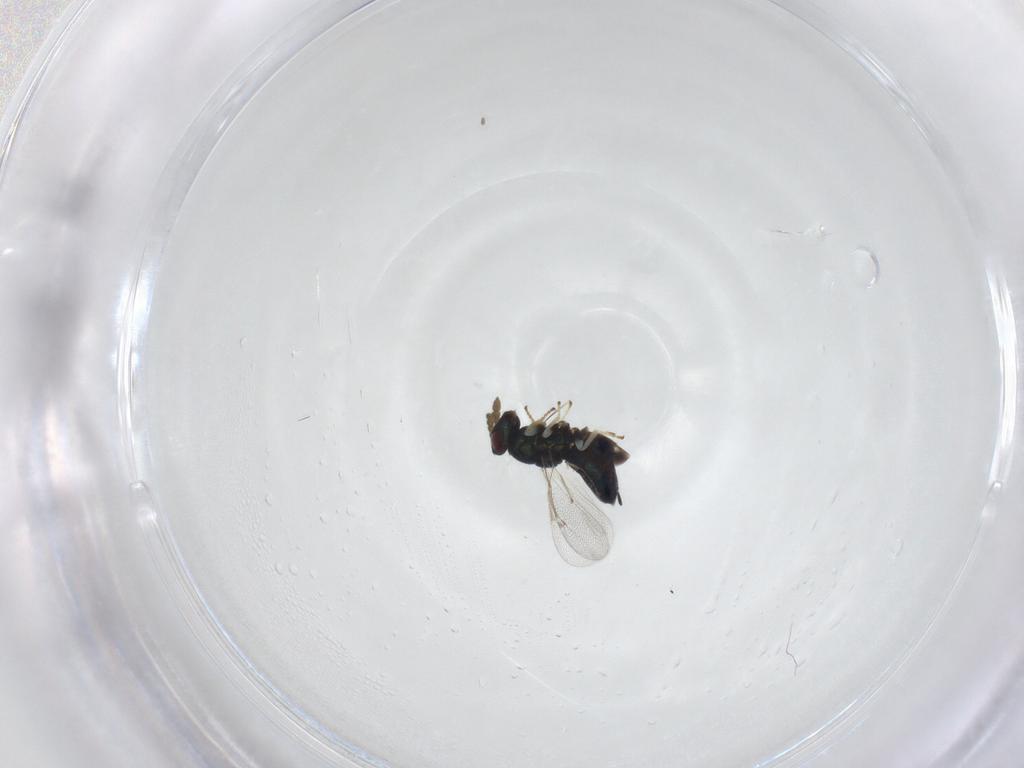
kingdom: Animalia
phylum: Arthropoda
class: Insecta
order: Hymenoptera
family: Eulophidae
